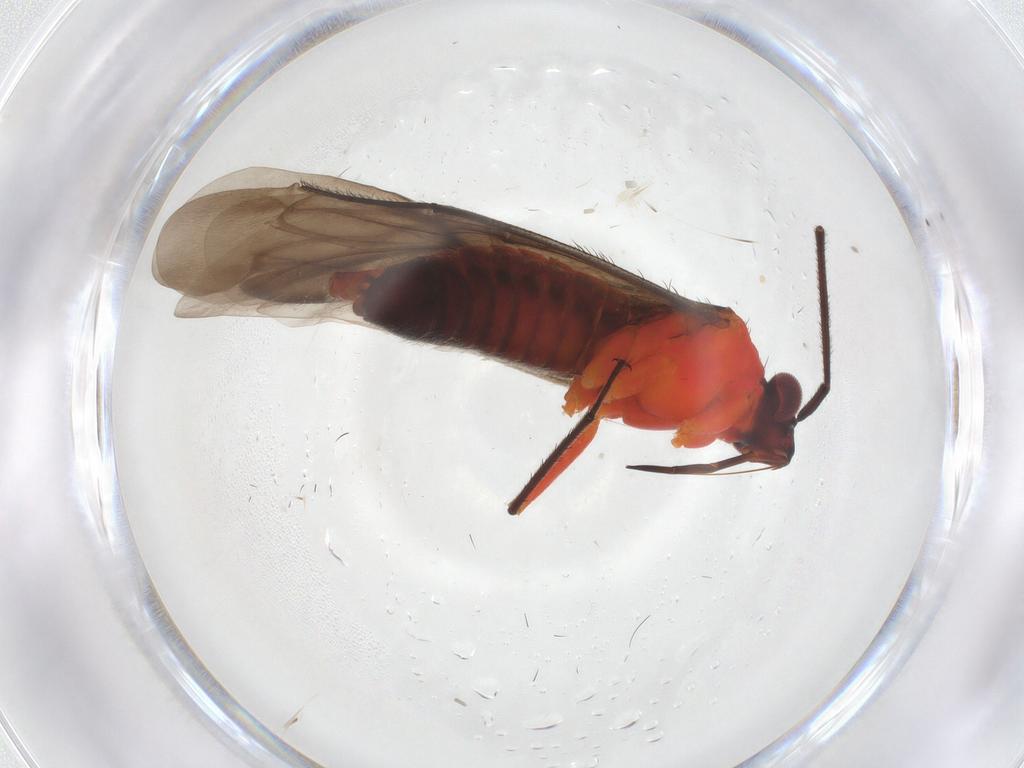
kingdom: Animalia
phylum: Arthropoda
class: Insecta
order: Hemiptera
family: Miridae
